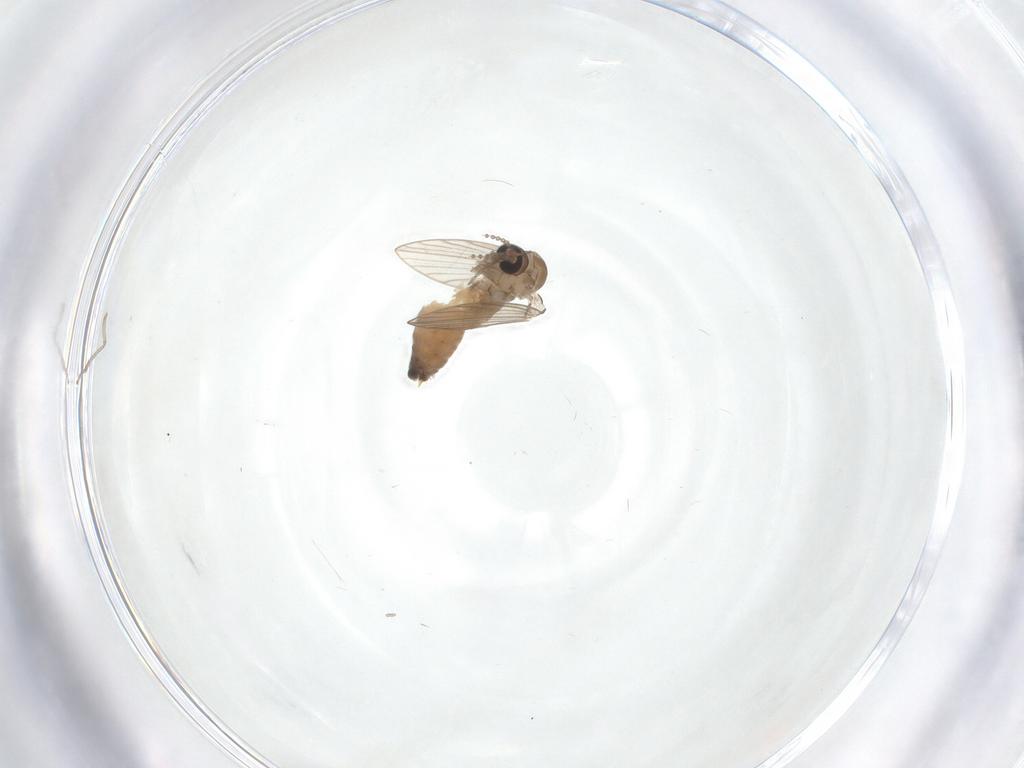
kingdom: Animalia
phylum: Arthropoda
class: Insecta
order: Diptera
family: Psychodidae
